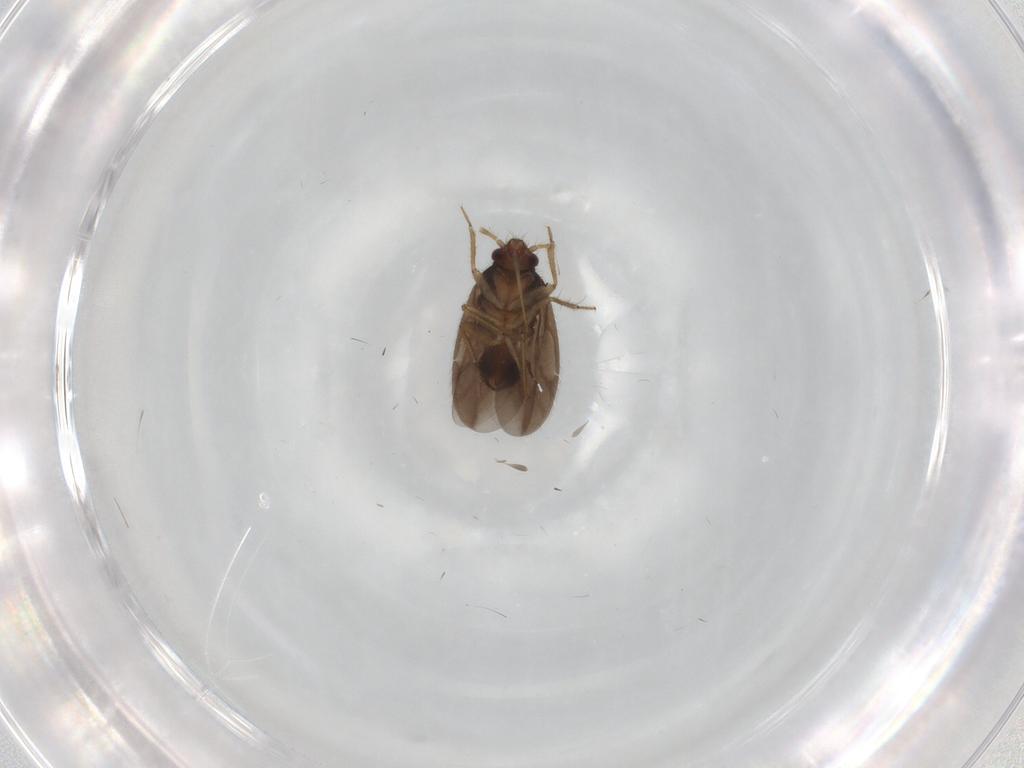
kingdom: Animalia
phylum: Arthropoda
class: Insecta
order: Hemiptera
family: Ceratocombidae
